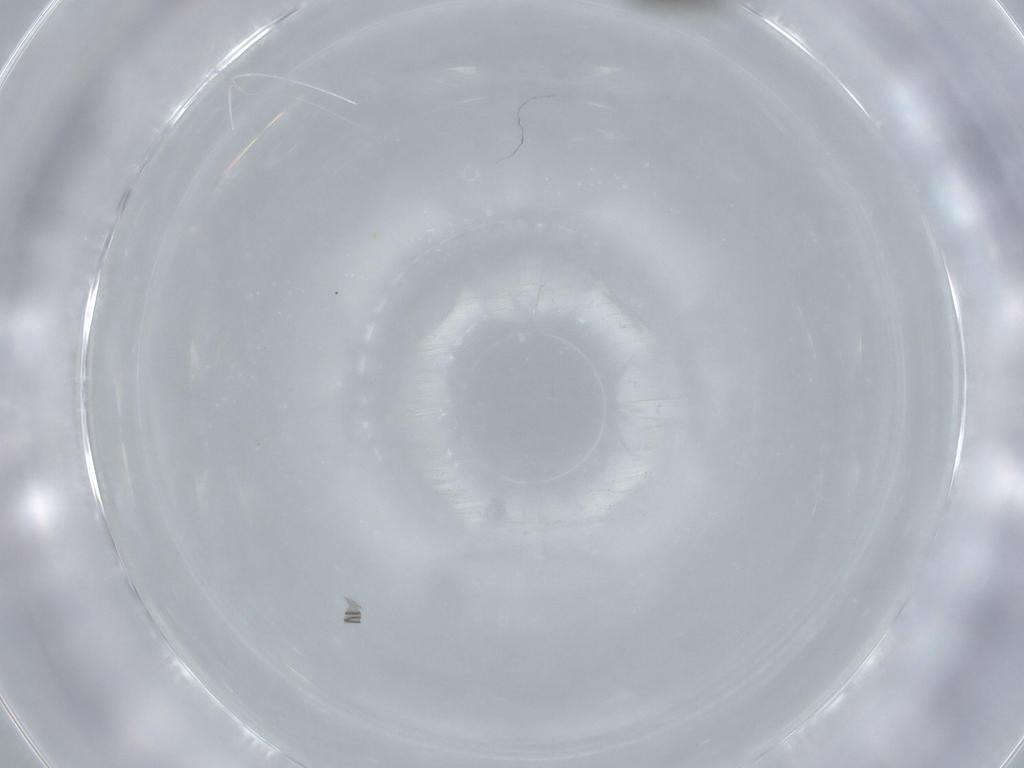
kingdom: Animalia
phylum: Arthropoda
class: Insecta
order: Diptera
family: Sciaridae
